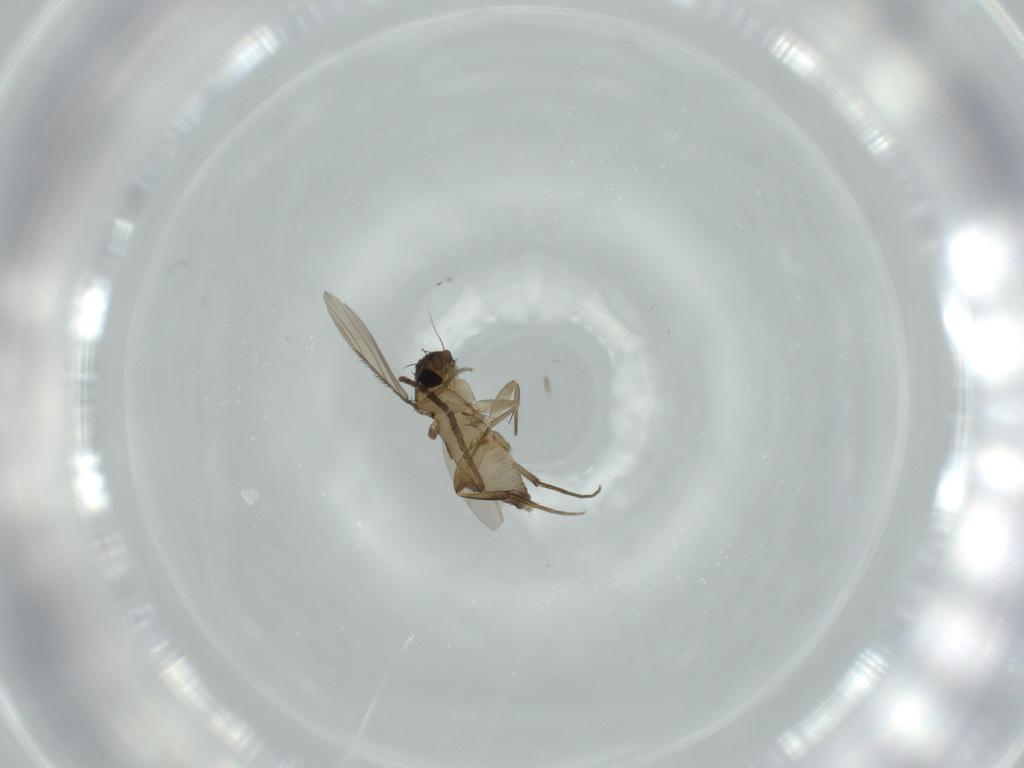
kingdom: Animalia
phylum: Arthropoda
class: Insecta
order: Diptera
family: Phoridae
